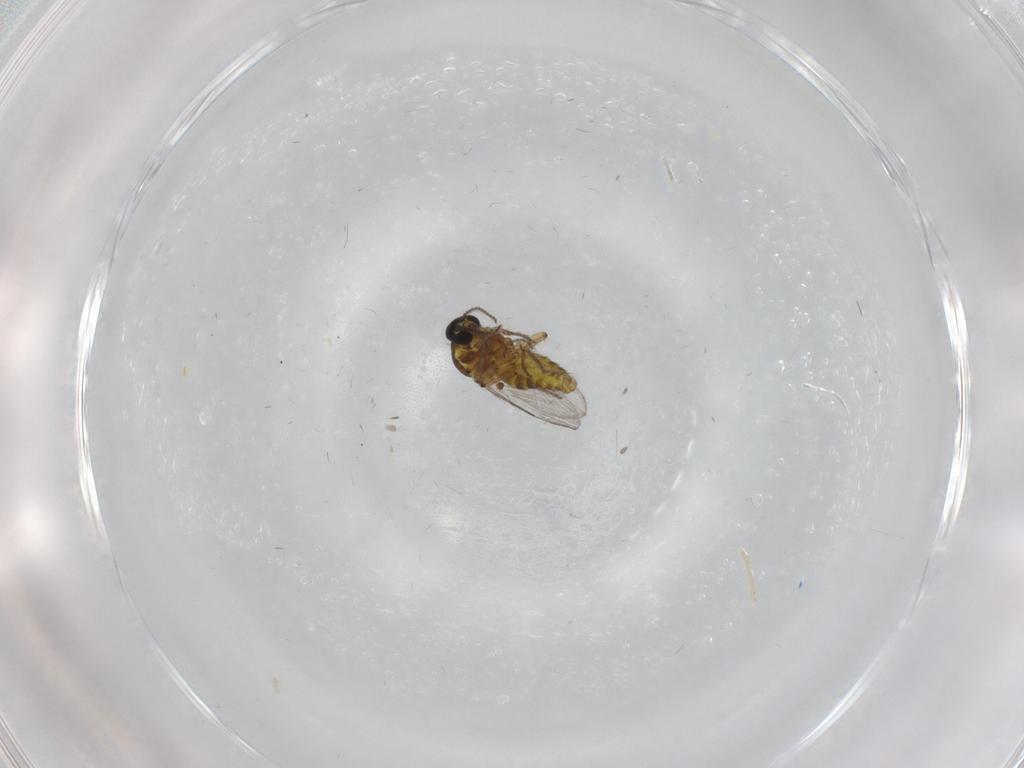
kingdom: Animalia
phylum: Arthropoda
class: Insecta
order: Diptera
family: Ceratopogonidae
